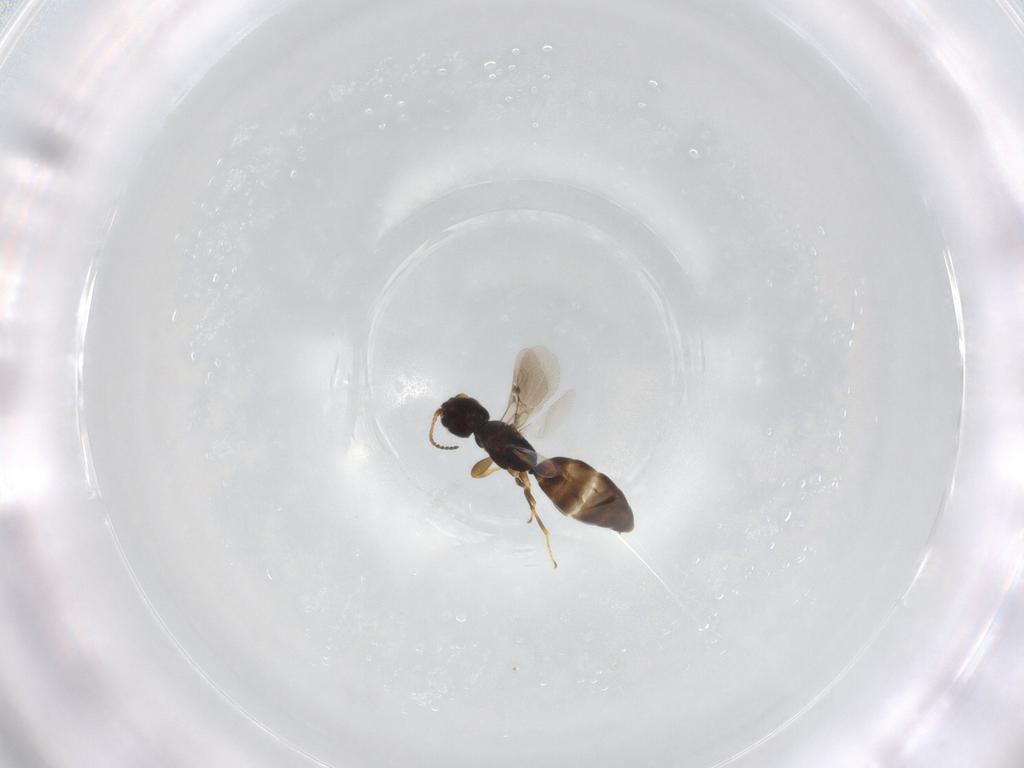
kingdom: Animalia
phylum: Arthropoda
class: Insecta
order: Hymenoptera
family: Bethylidae
